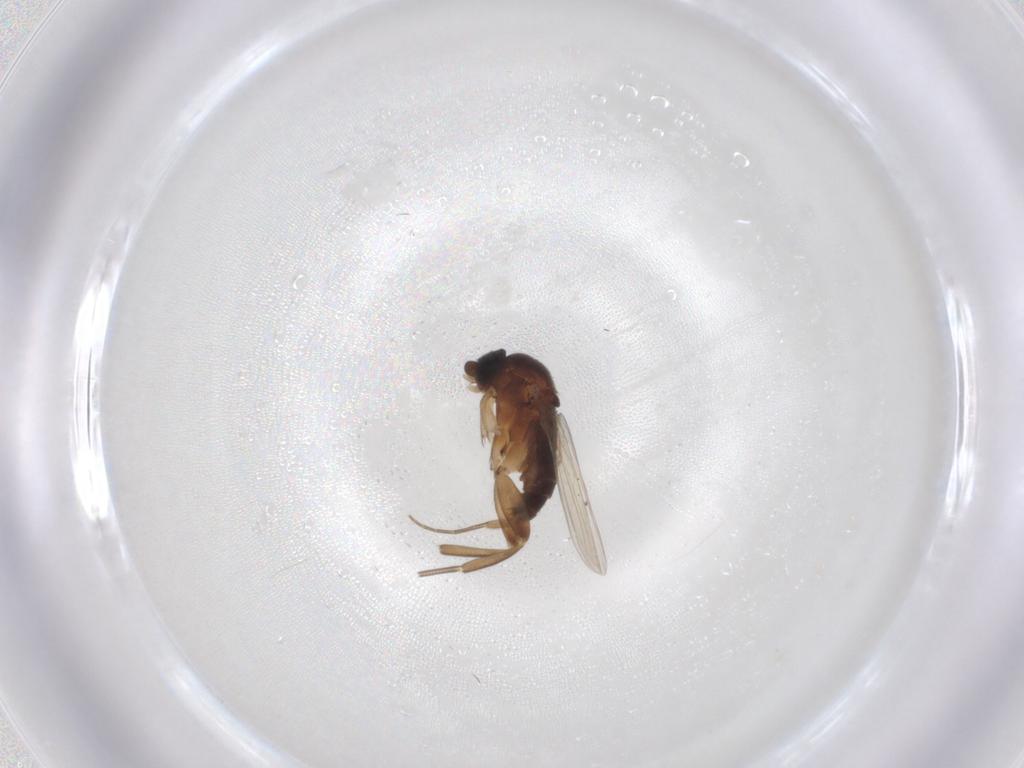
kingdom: Animalia
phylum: Arthropoda
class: Insecta
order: Diptera
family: Phoridae
